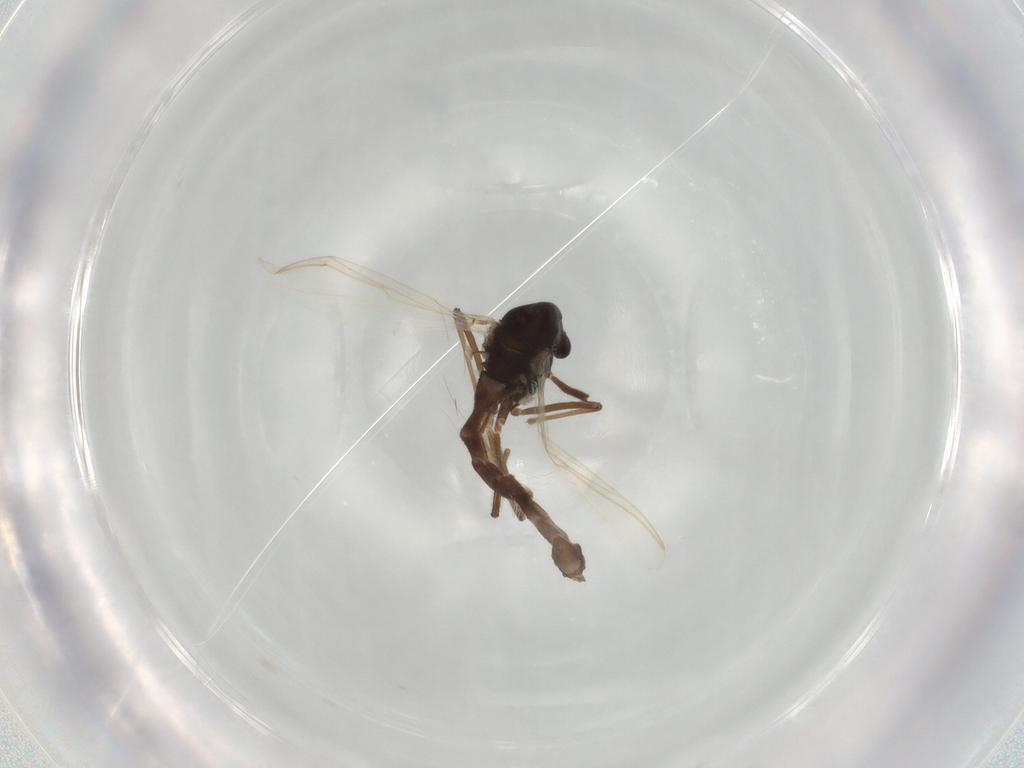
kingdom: Animalia
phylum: Arthropoda
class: Insecta
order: Diptera
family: Chironomidae
